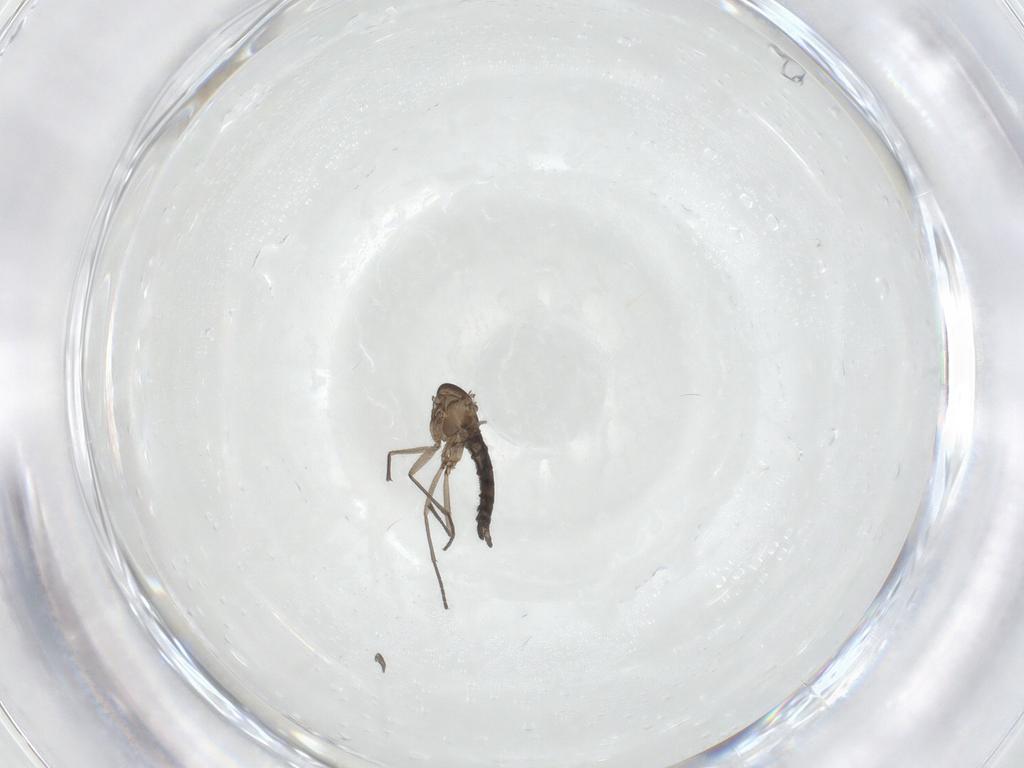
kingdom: Animalia
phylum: Arthropoda
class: Insecta
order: Diptera
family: Sciaridae
